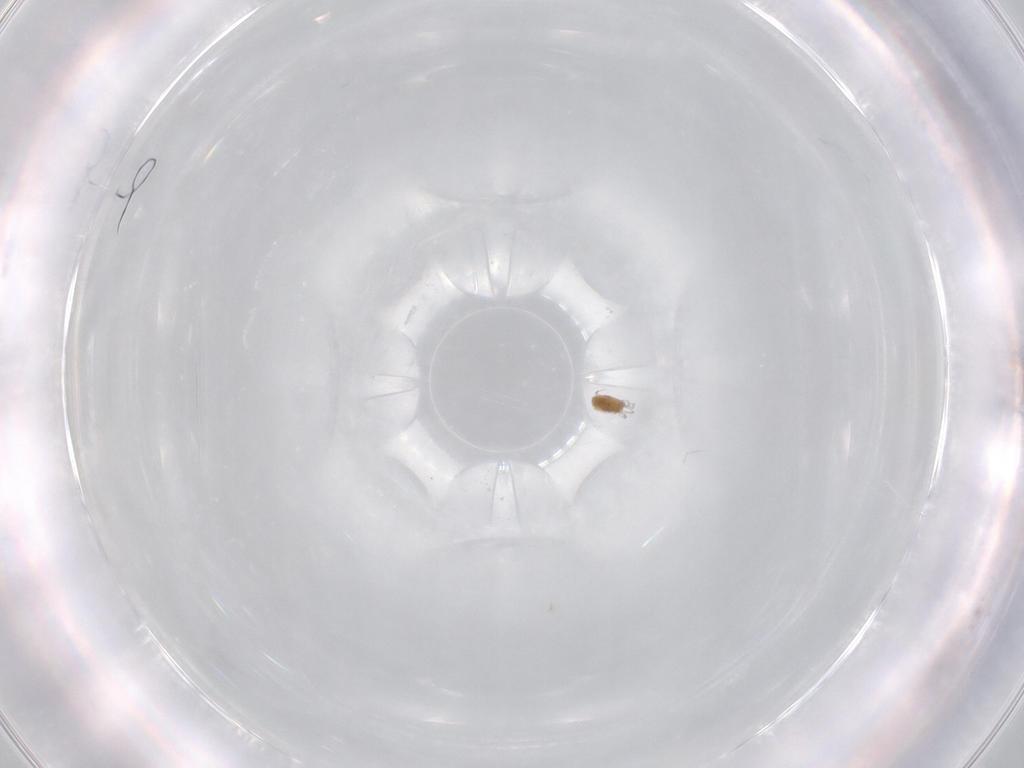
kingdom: Animalia
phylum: Arthropoda
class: Arachnida
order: Trombidiformes
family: Limnesiidae
